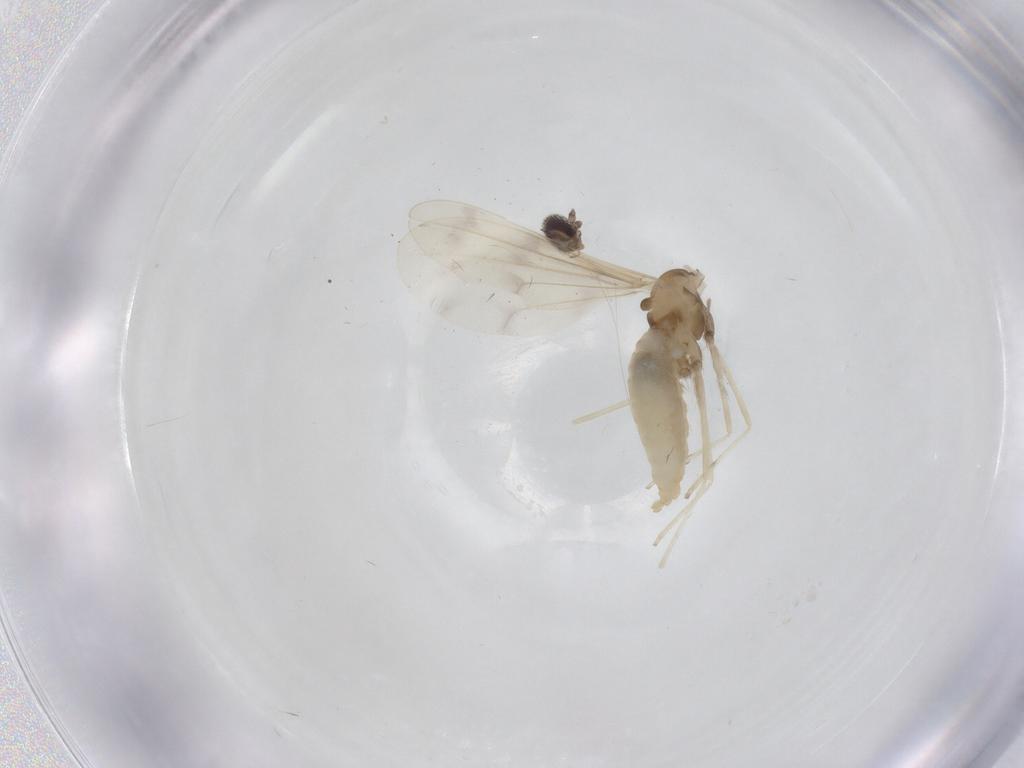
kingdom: Animalia
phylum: Arthropoda
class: Insecta
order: Diptera
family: Cecidomyiidae
